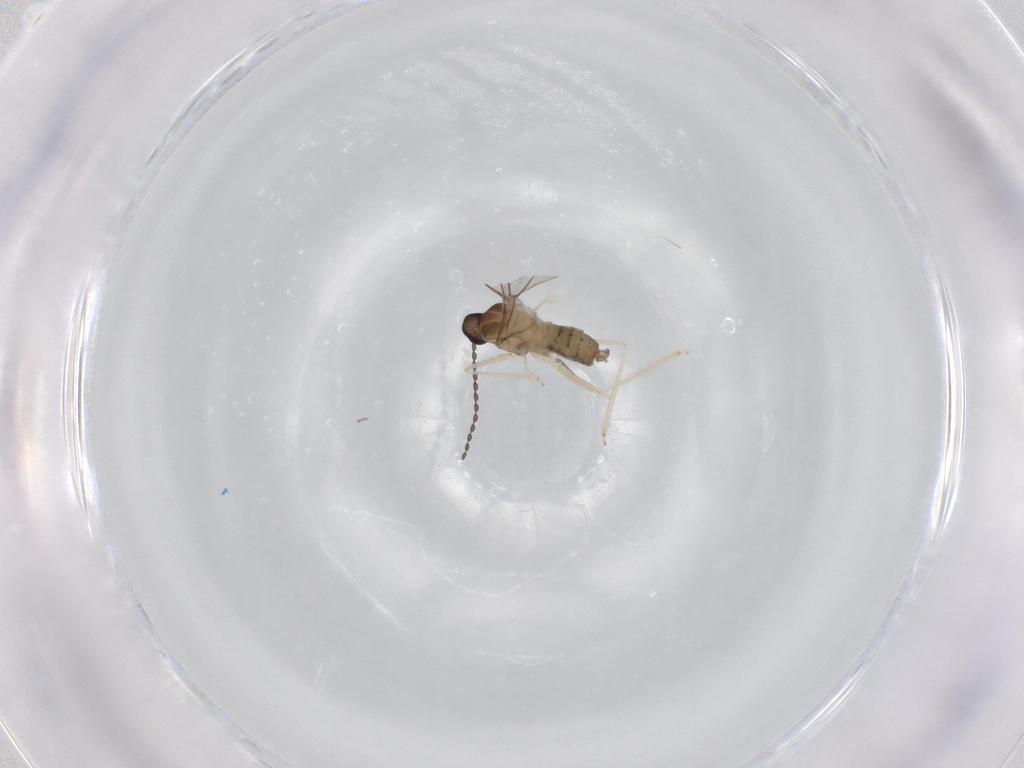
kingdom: Animalia
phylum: Arthropoda
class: Insecta
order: Diptera
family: Cecidomyiidae
